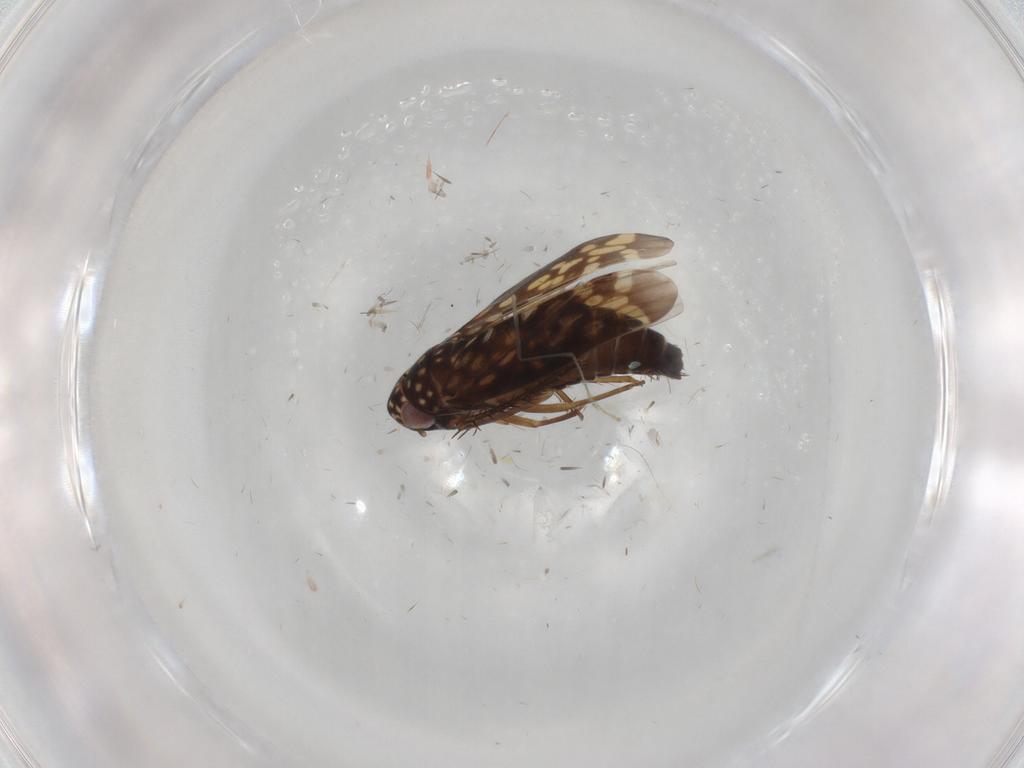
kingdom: Animalia
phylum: Arthropoda
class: Insecta
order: Hemiptera
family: Cicadellidae
